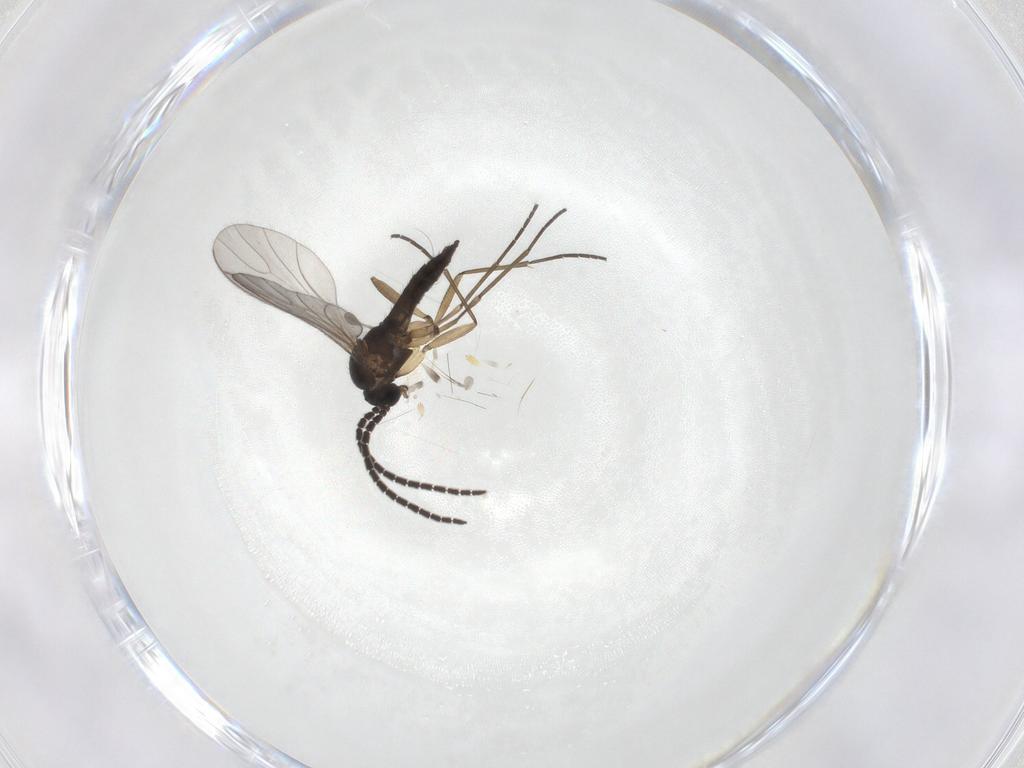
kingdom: Animalia
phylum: Arthropoda
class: Insecta
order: Diptera
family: Sciaridae
